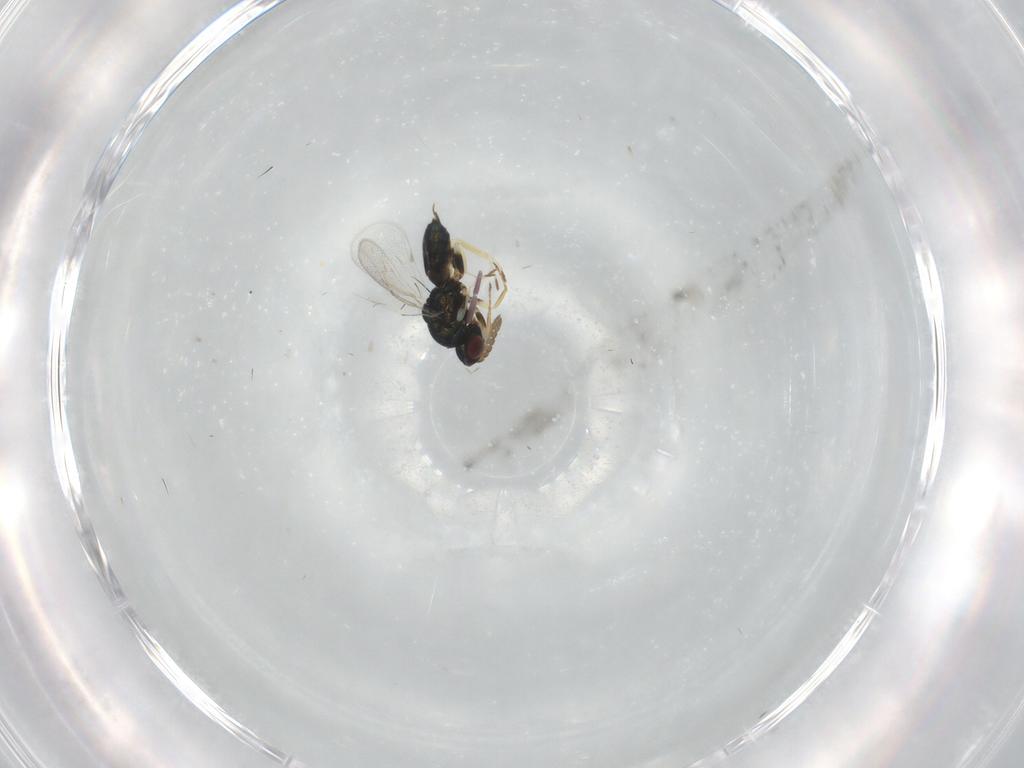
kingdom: Animalia
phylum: Arthropoda
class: Insecta
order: Hymenoptera
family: Eulophidae
